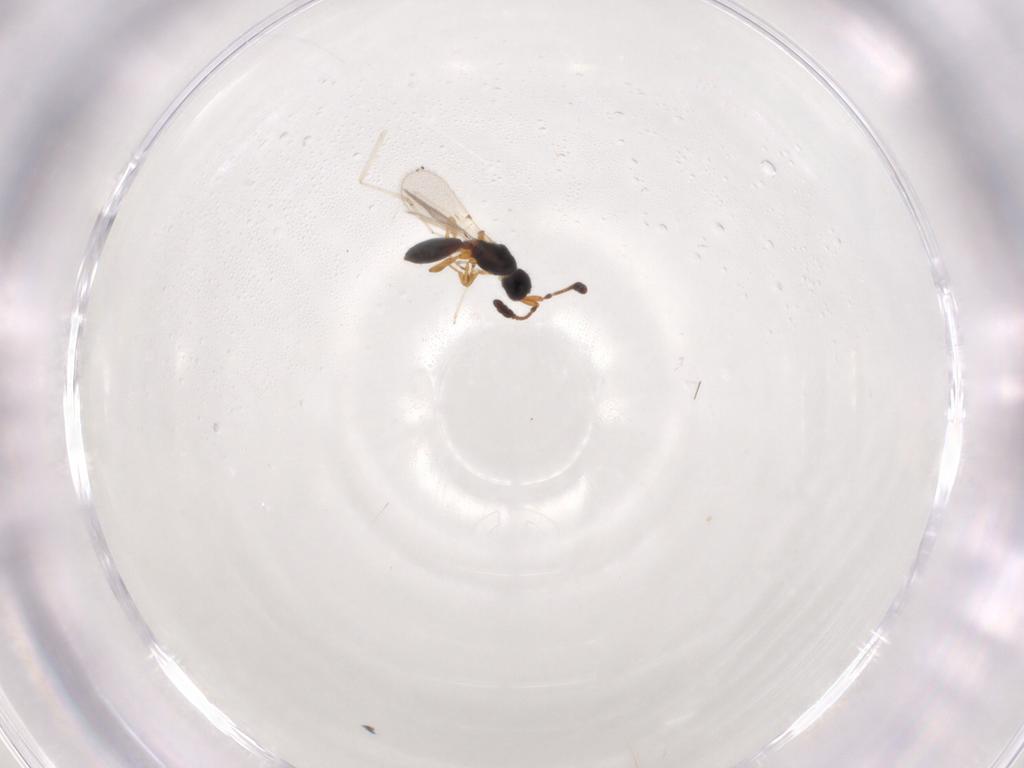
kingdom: Animalia
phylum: Arthropoda
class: Insecta
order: Hymenoptera
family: Diapriidae
